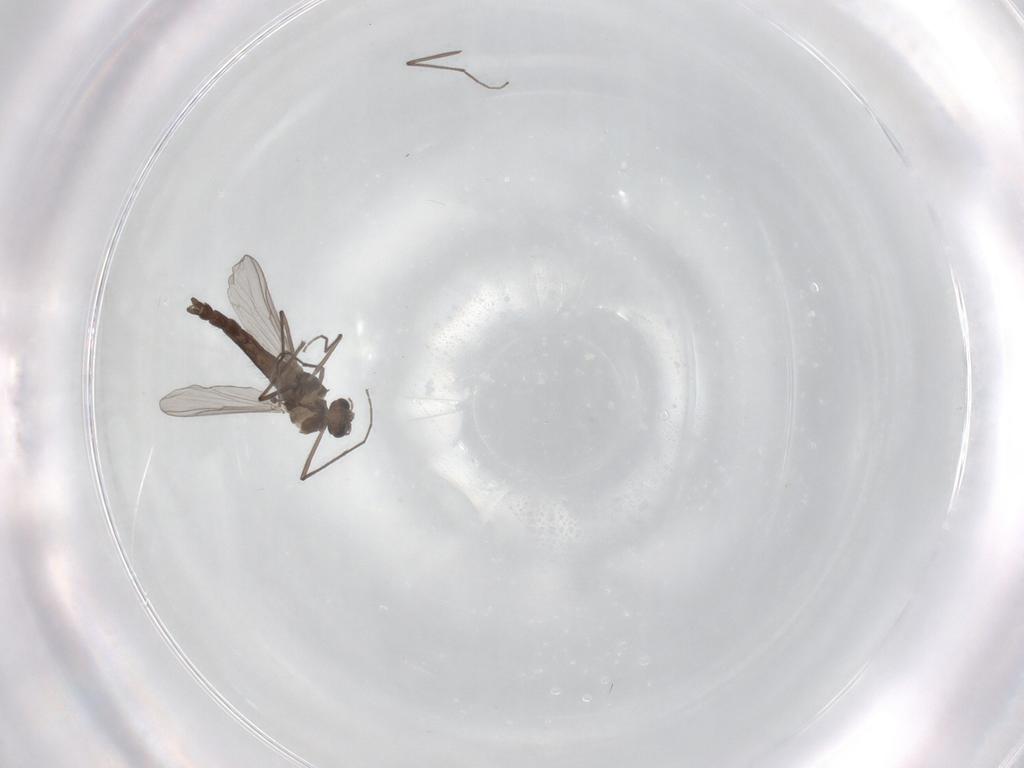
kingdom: Animalia
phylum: Arthropoda
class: Insecta
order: Diptera
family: Chironomidae
